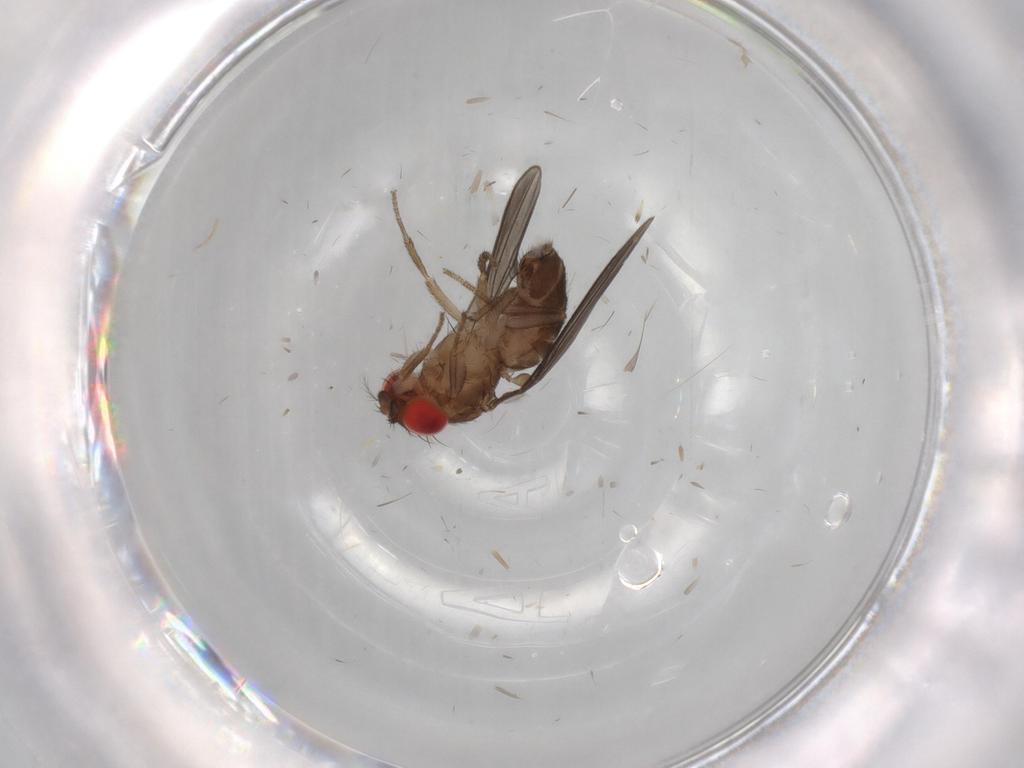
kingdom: Animalia
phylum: Arthropoda
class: Insecta
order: Diptera
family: Drosophilidae
